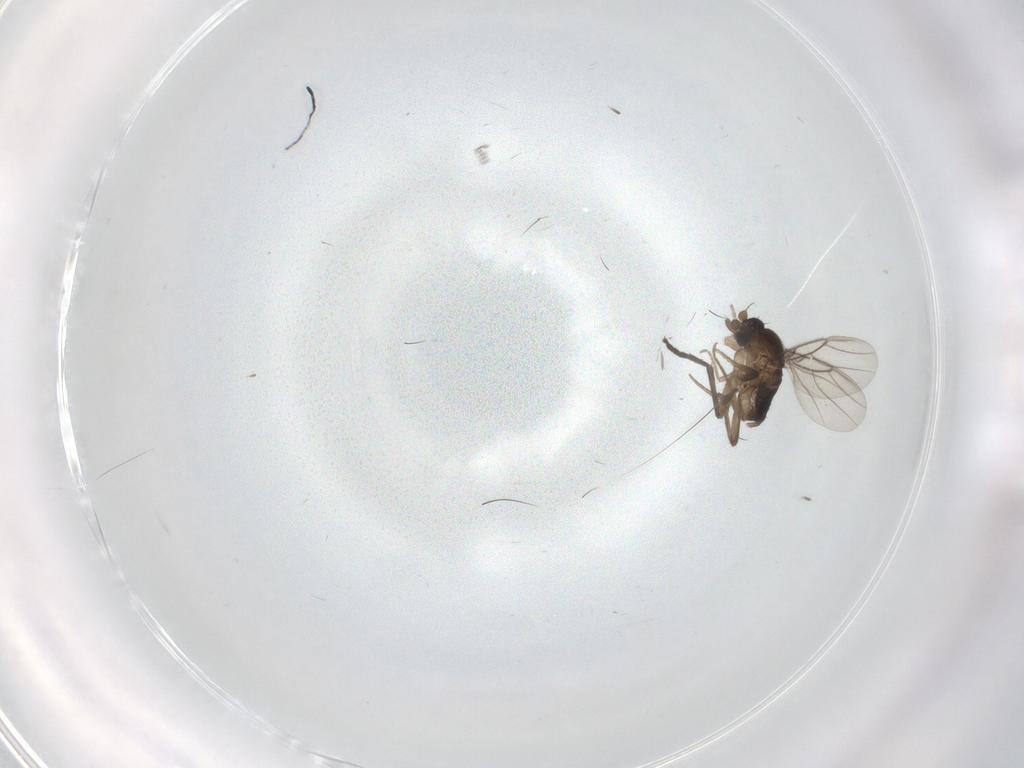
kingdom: Animalia
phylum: Arthropoda
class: Insecta
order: Diptera
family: Sciaridae
